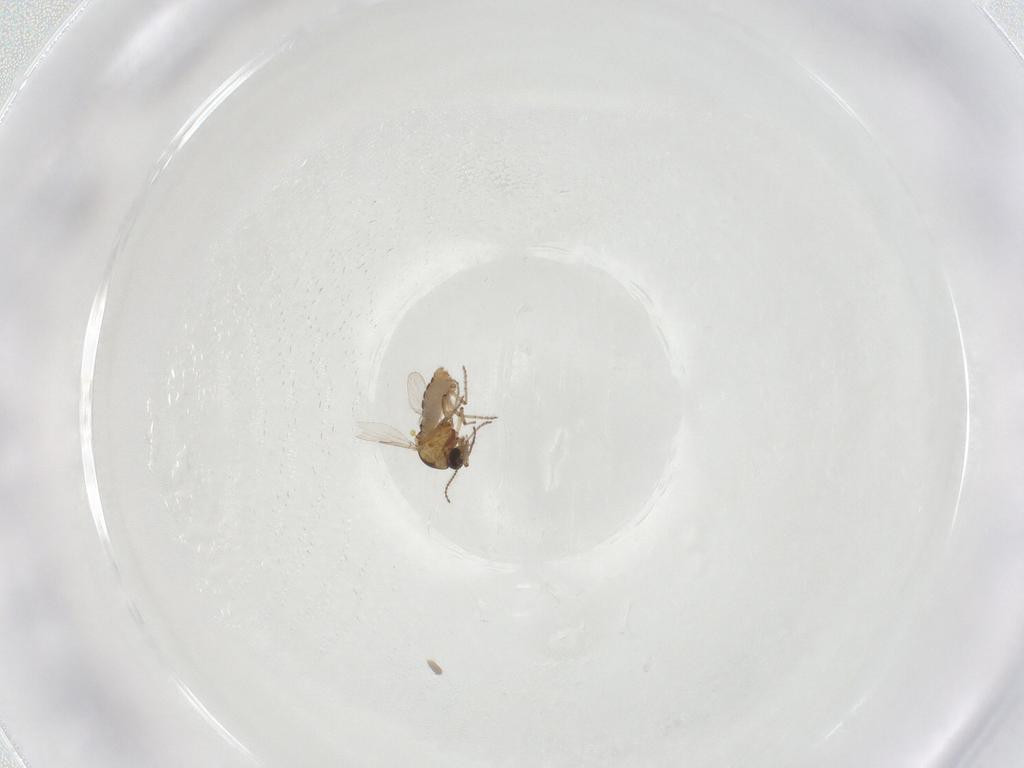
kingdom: Animalia
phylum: Arthropoda
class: Insecta
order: Diptera
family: Ceratopogonidae
